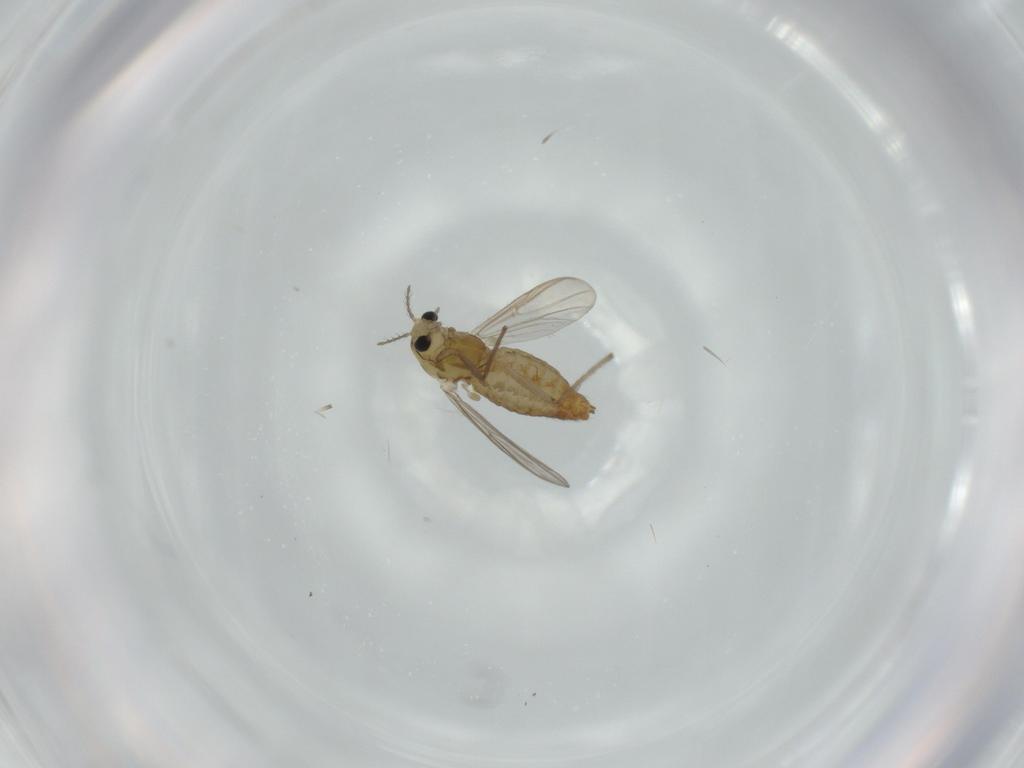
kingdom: Animalia
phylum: Arthropoda
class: Insecta
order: Diptera
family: Chironomidae
